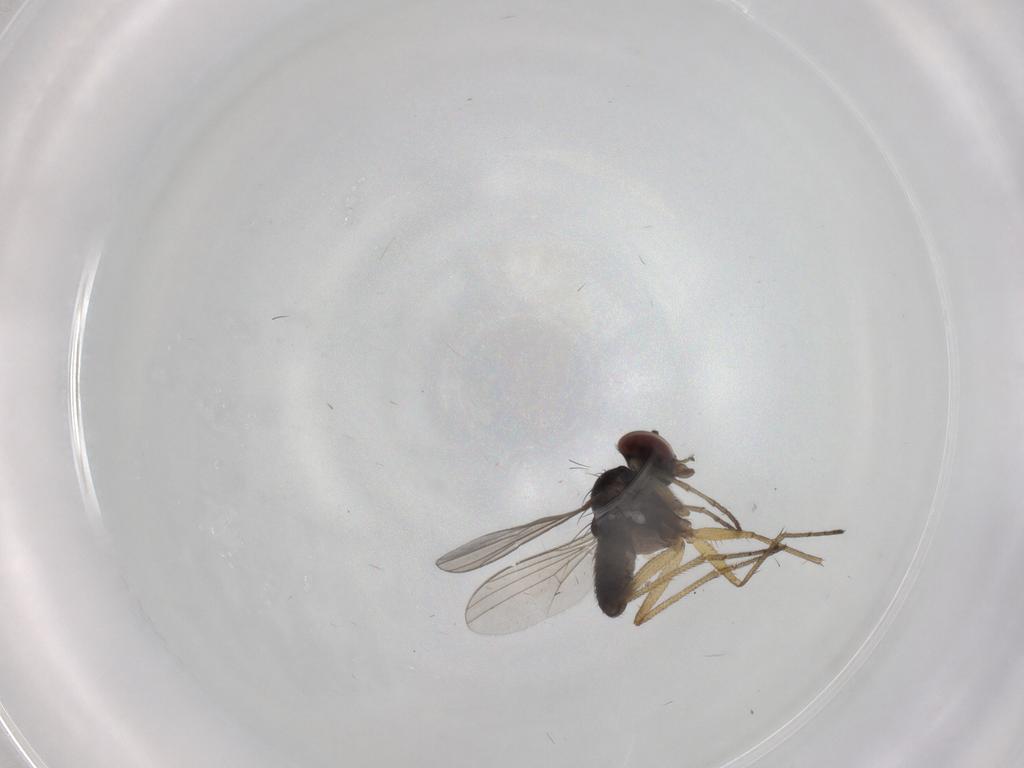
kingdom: Animalia
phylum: Arthropoda
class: Insecta
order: Diptera
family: Dolichopodidae
